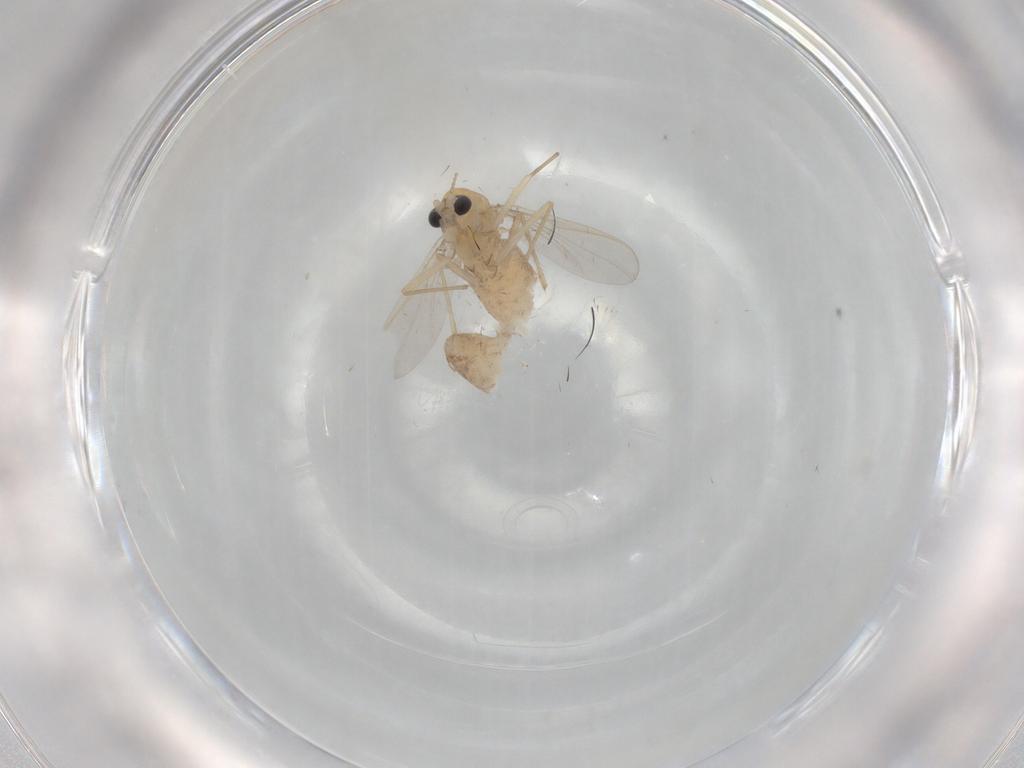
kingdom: Animalia
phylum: Arthropoda
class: Insecta
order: Diptera
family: Chironomidae
